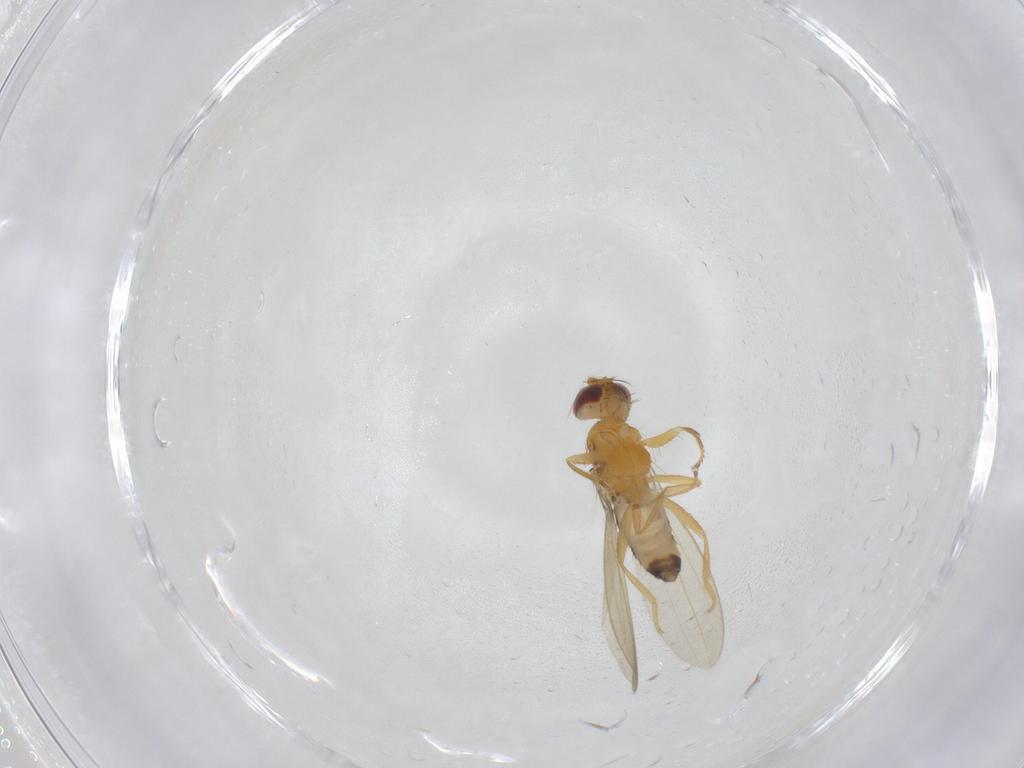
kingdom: Animalia
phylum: Arthropoda
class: Insecta
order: Diptera
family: Periscelididae
